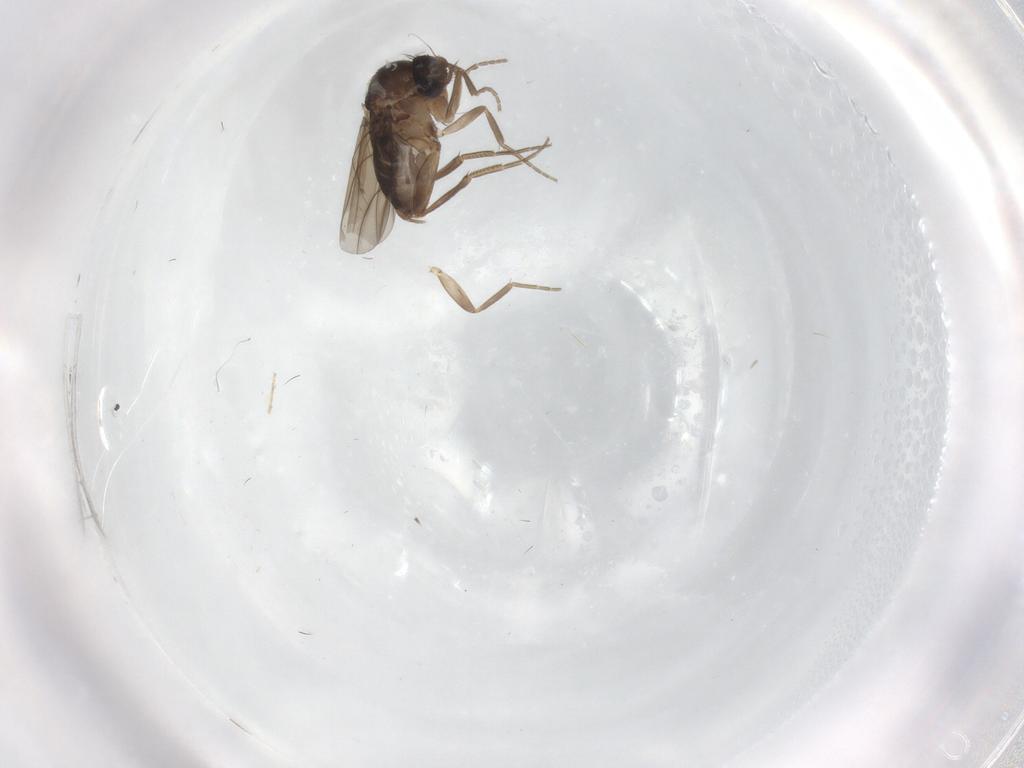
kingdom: Animalia
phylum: Arthropoda
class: Insecta
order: Diptera
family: Phoridae
